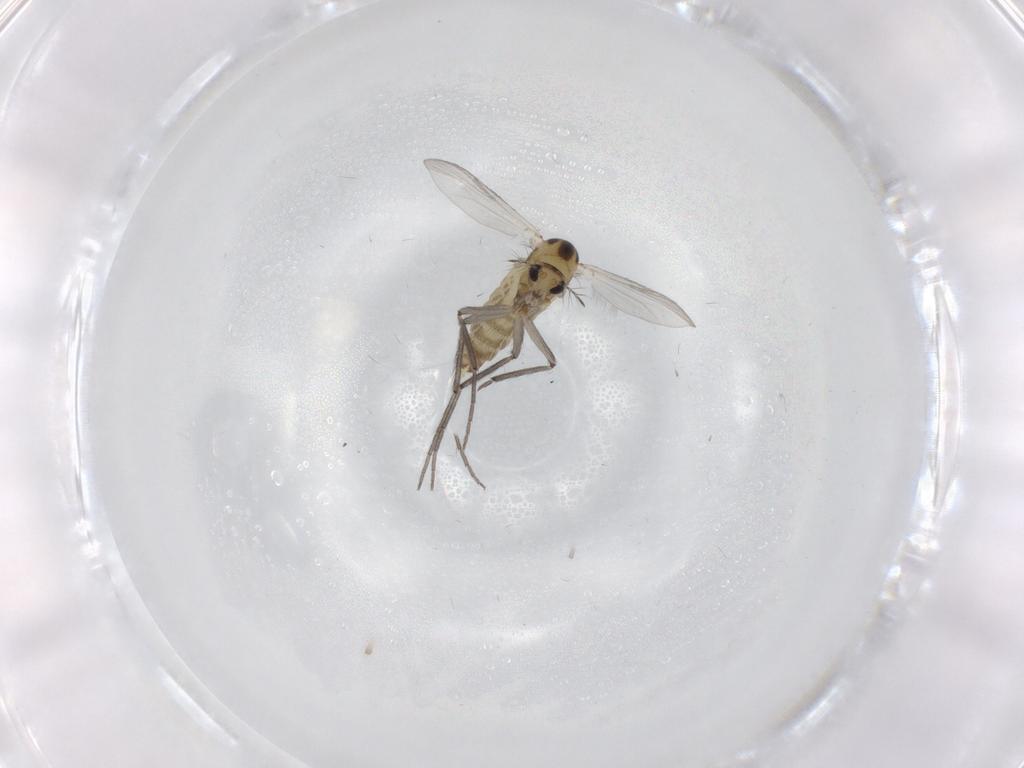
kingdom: Animalia
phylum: Arthropoda
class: Insecta
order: Diptera
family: Chironomidae
